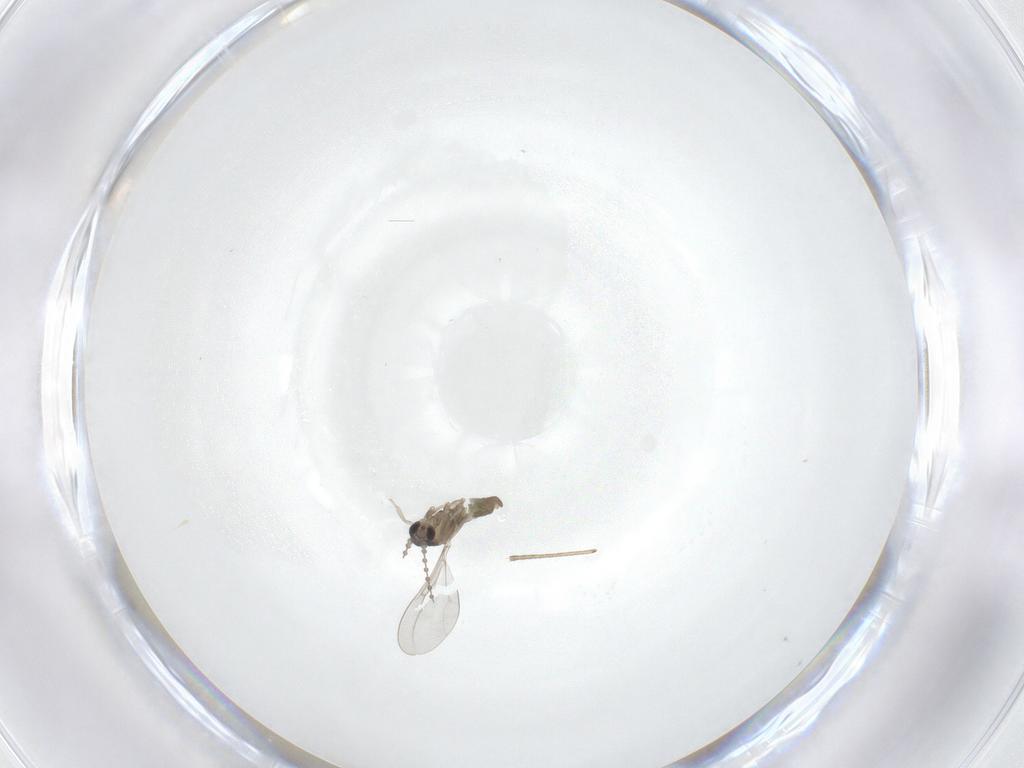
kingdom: Animalia
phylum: Arthropoda
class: Insecta
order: Diptera
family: Cecidomyiidae
